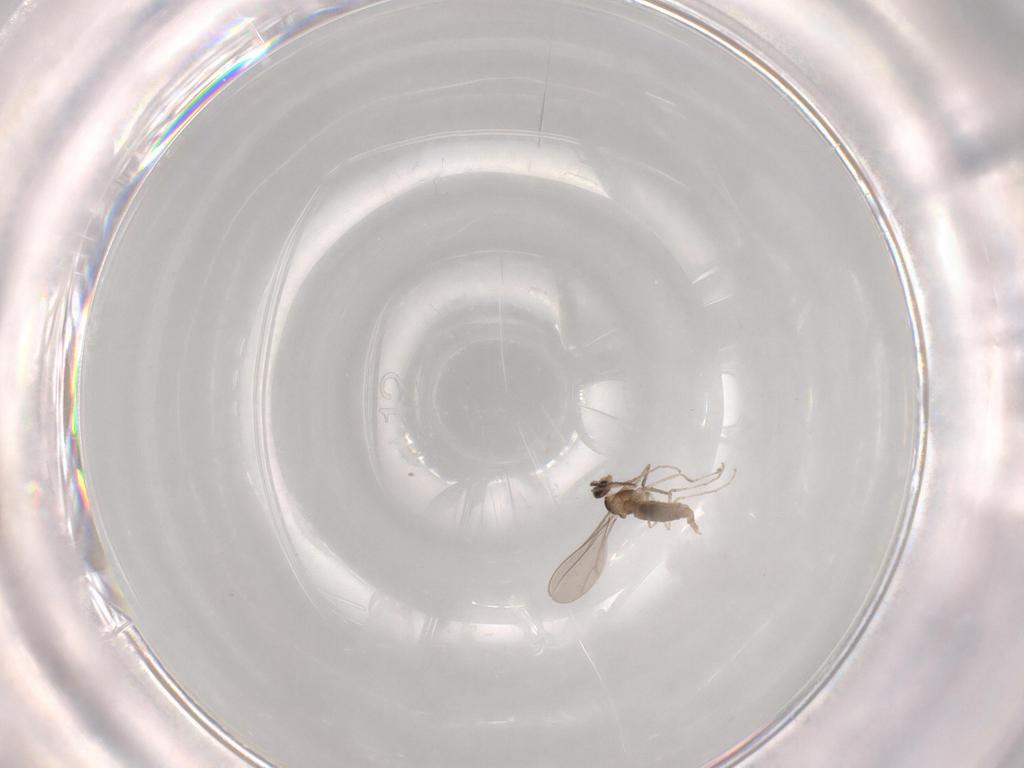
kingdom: Animalia
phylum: Arthropoda
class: Insecta
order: Diptera
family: Cecidomyiidae
